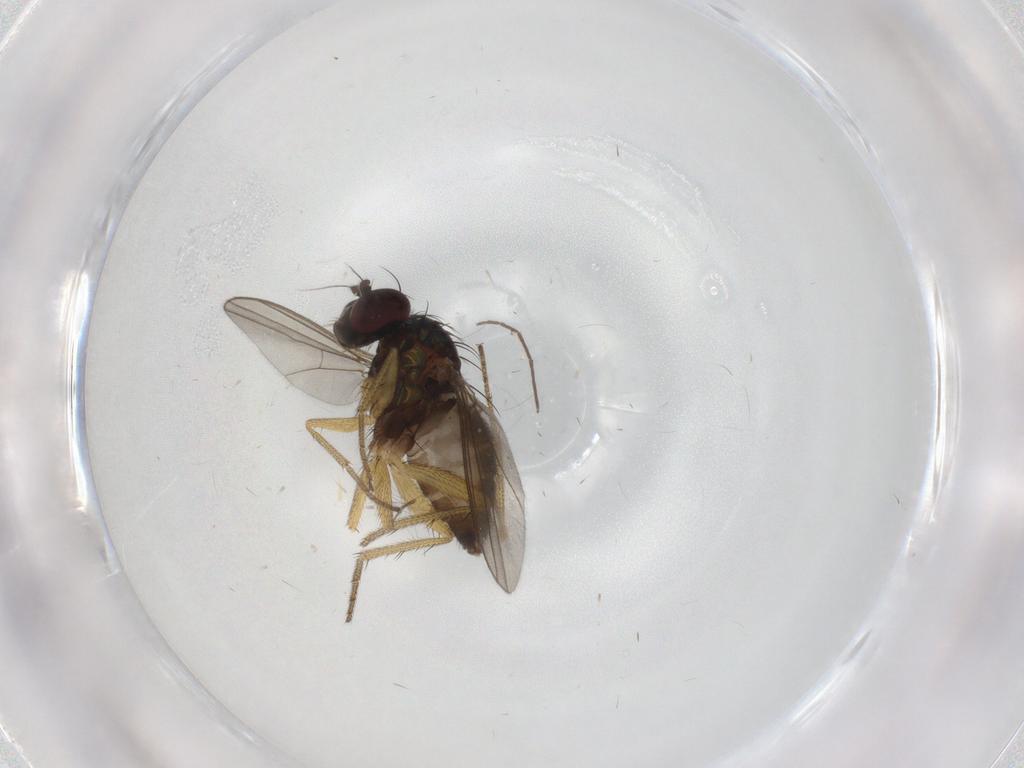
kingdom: Animalia
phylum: Arthropoda
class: Insecta
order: Diptera
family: Chironomidae
